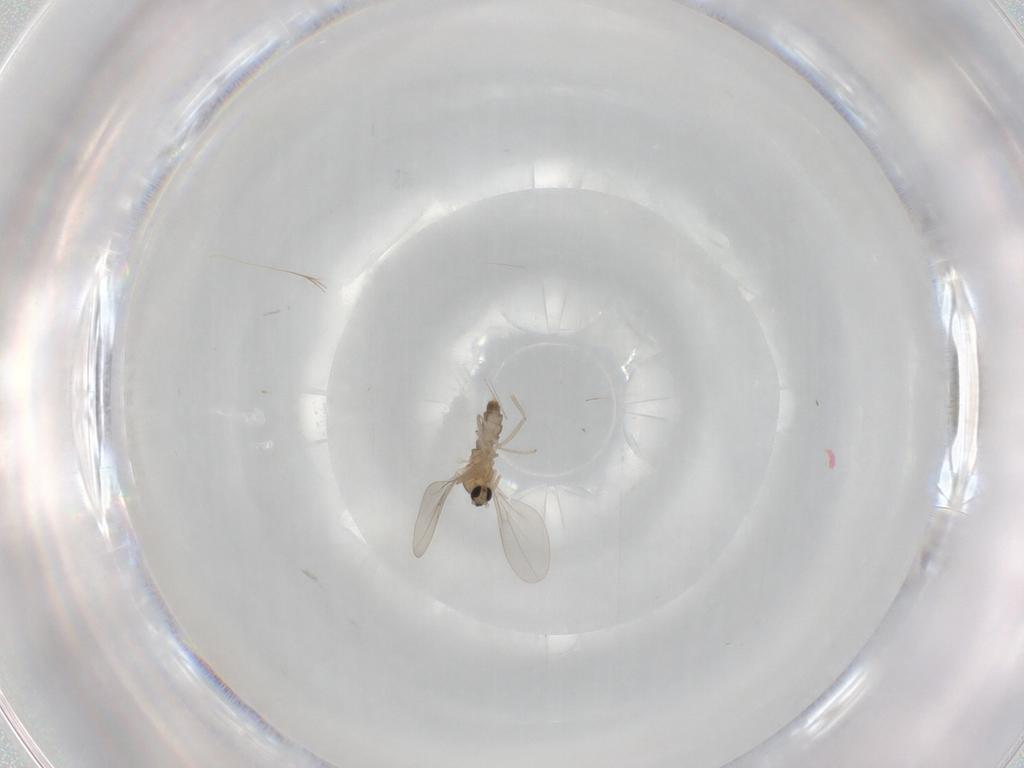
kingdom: Animalia
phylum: Arthropoda
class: Insecta
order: Diptera
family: Cecidomyiidae
